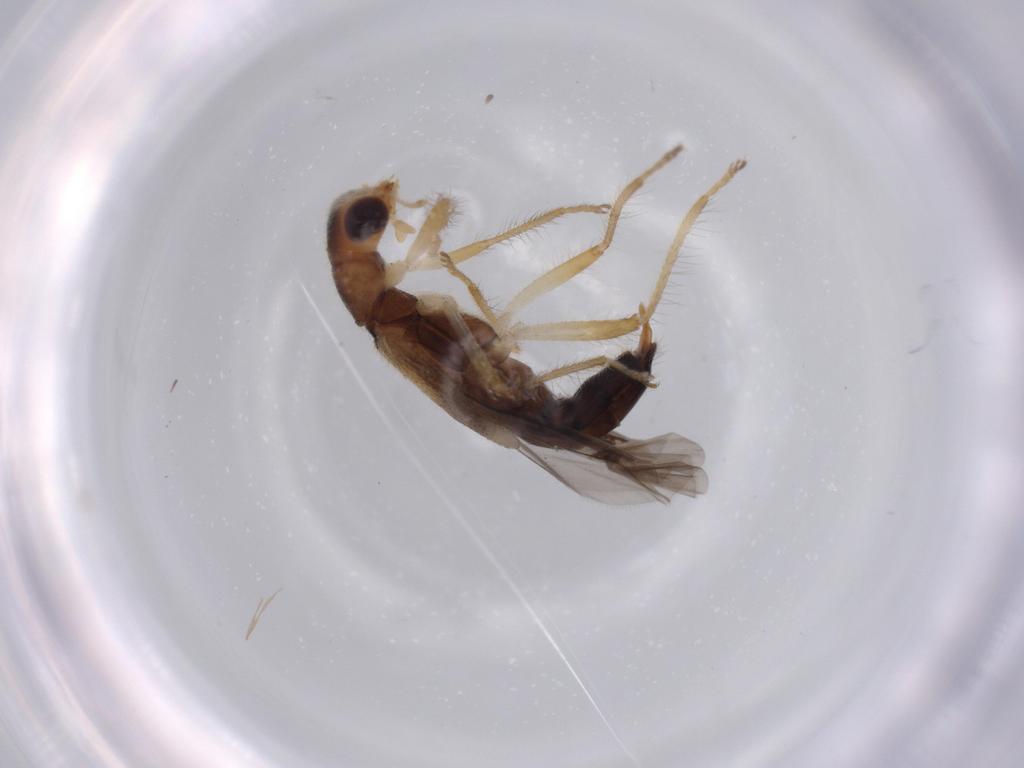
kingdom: Animalia
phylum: Arthropoda
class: Insecta
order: Coleoptera
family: Cleridae
